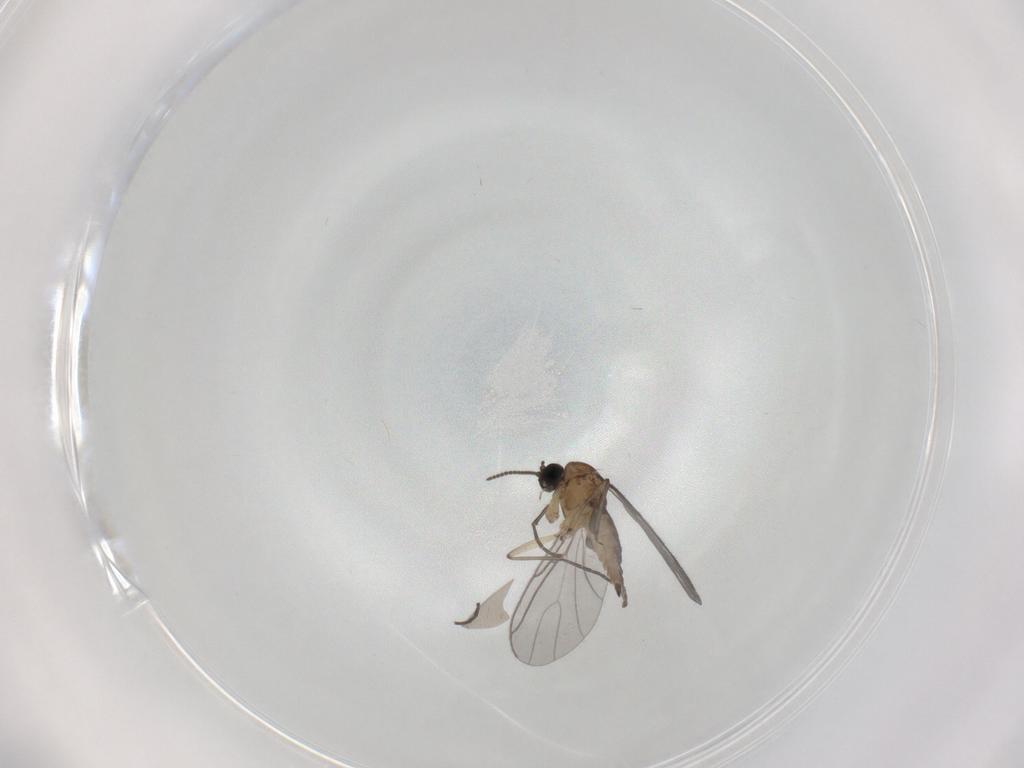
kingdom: Animalia
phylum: Arthropoda
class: Insecta
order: Diptera
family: Sciaridae
